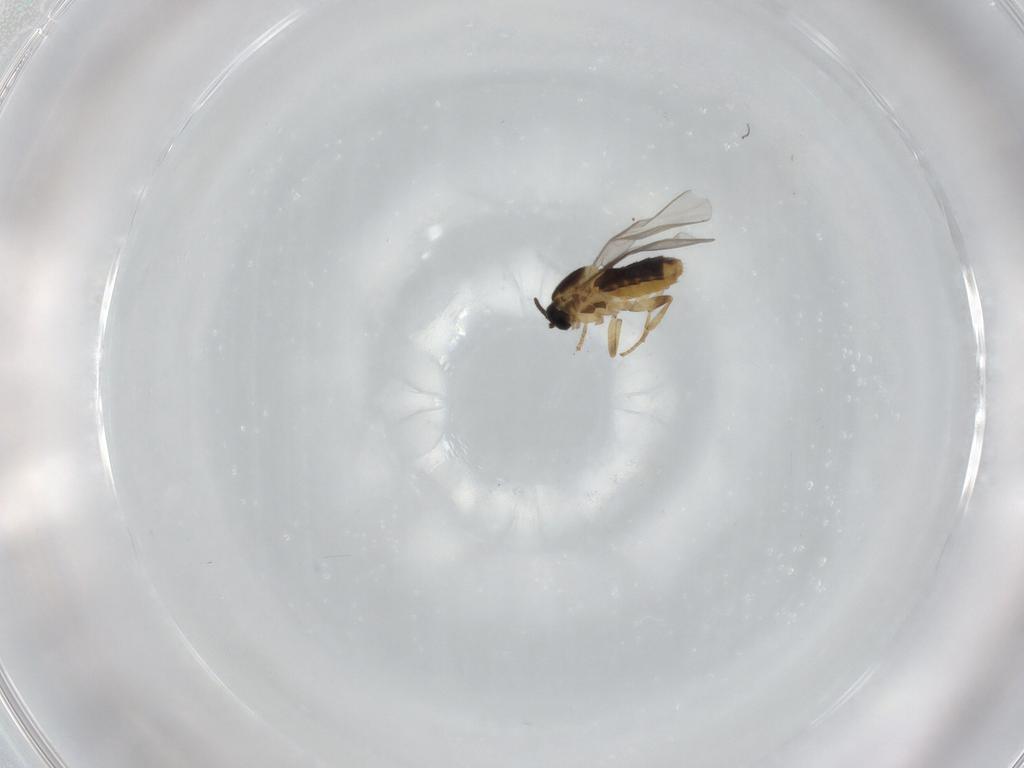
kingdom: Animalia
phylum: Arthropoda
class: Insecta
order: Diptera
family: Scatopsidae
